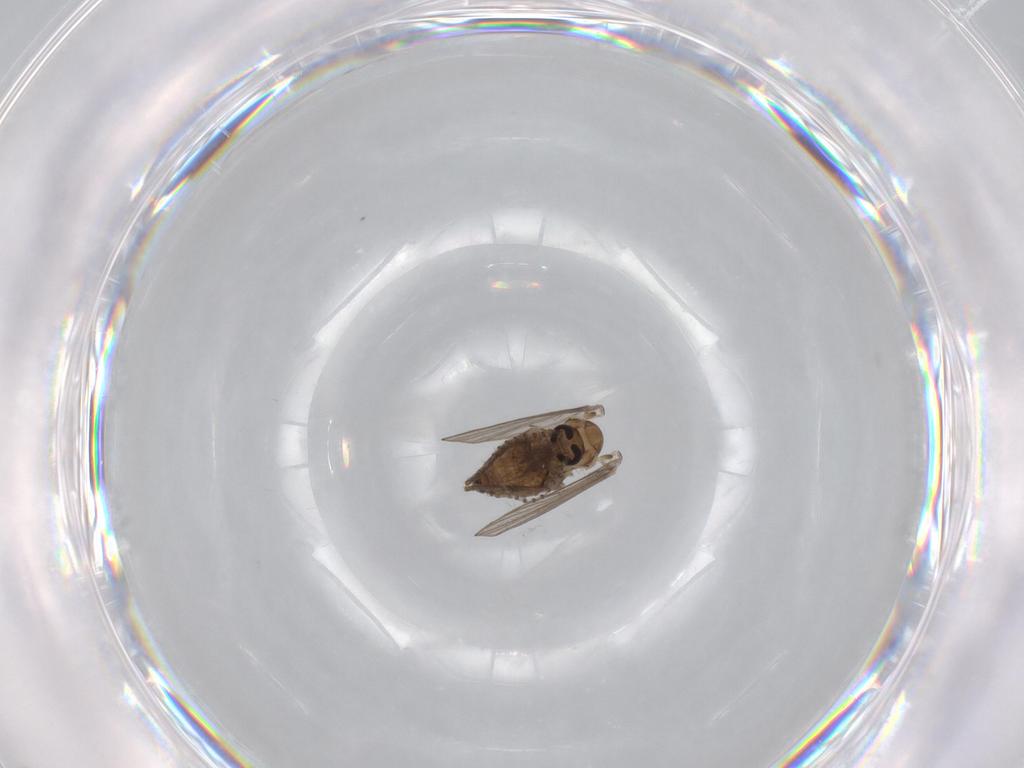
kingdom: Animalia
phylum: Arthropoda
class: Insecta
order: Diptera
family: Psychodidae
